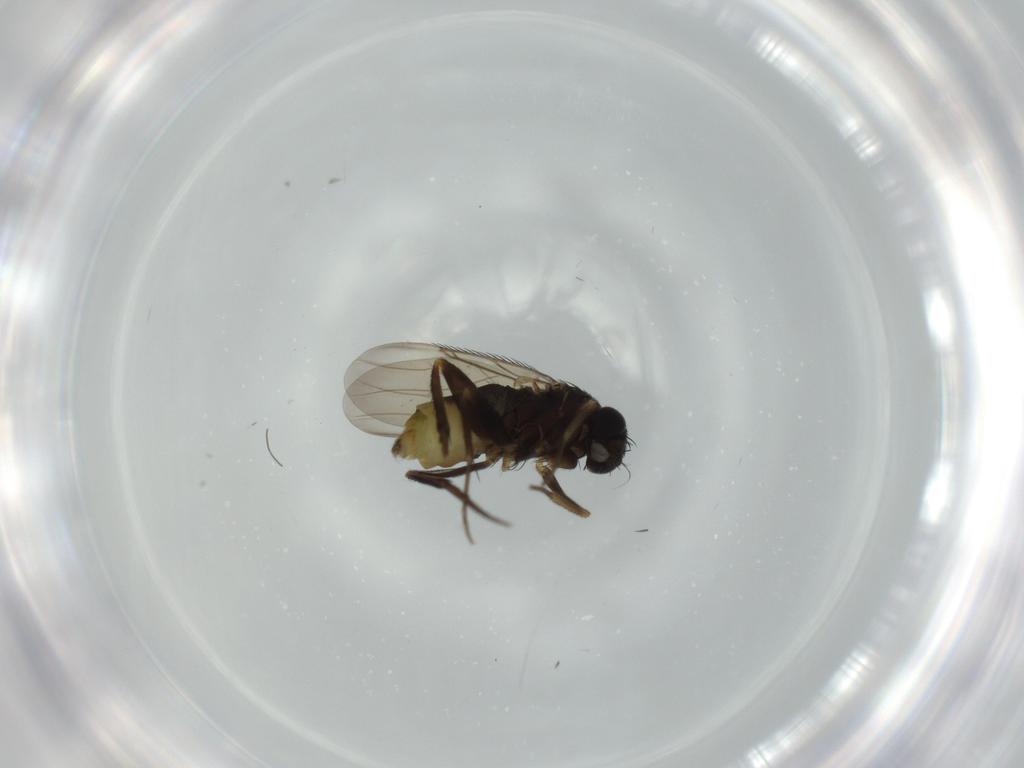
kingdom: Animalia
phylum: Arthropoda
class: Insecta
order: Diptera
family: Phoridae
